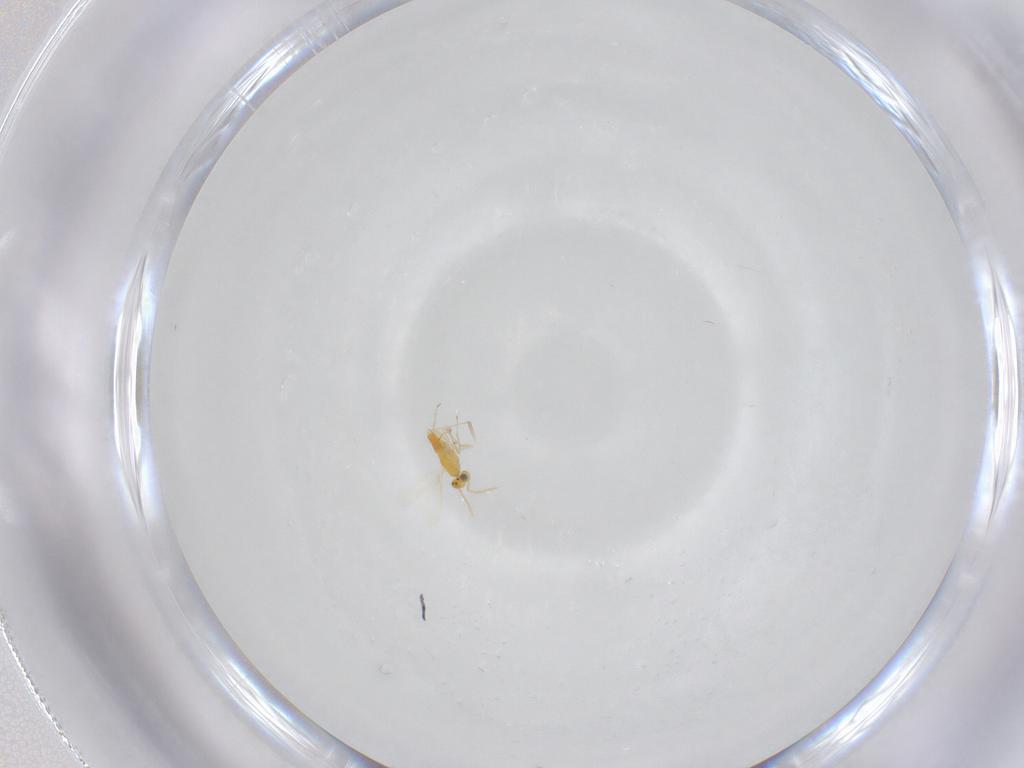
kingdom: Animalia
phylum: Arthropoda
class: Insecta
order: Hymenoptera
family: Aphelinidae
